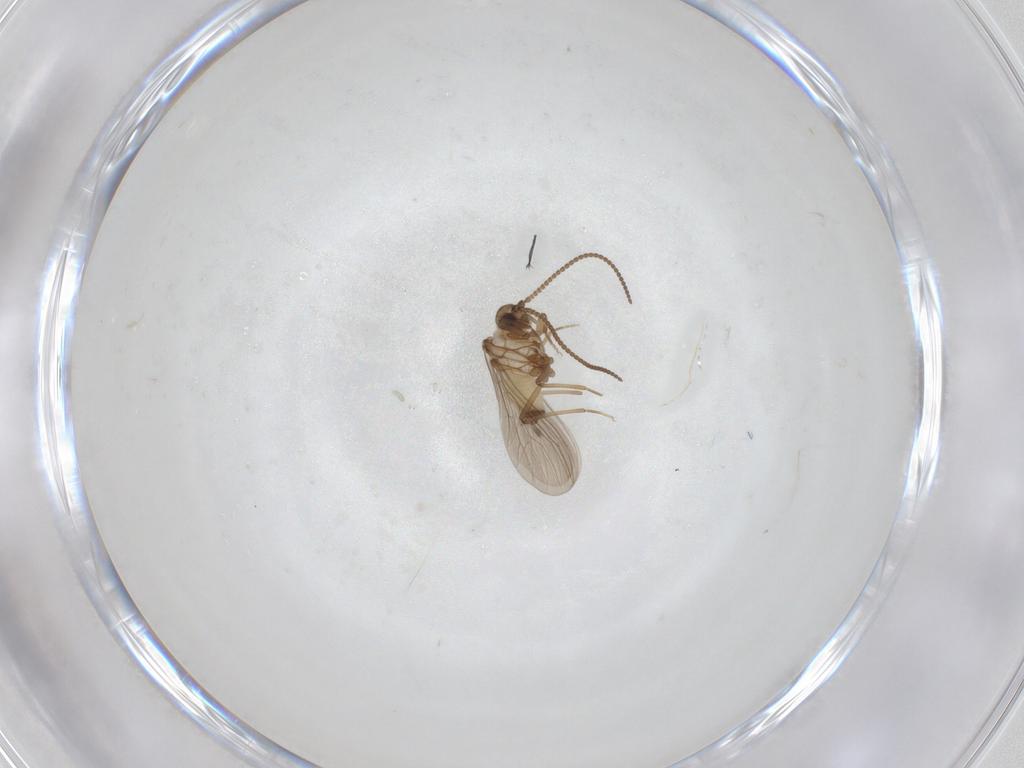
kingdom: Animalia
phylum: Arthropoda
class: Insecta
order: Neuroptera
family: Coniopterygidae
